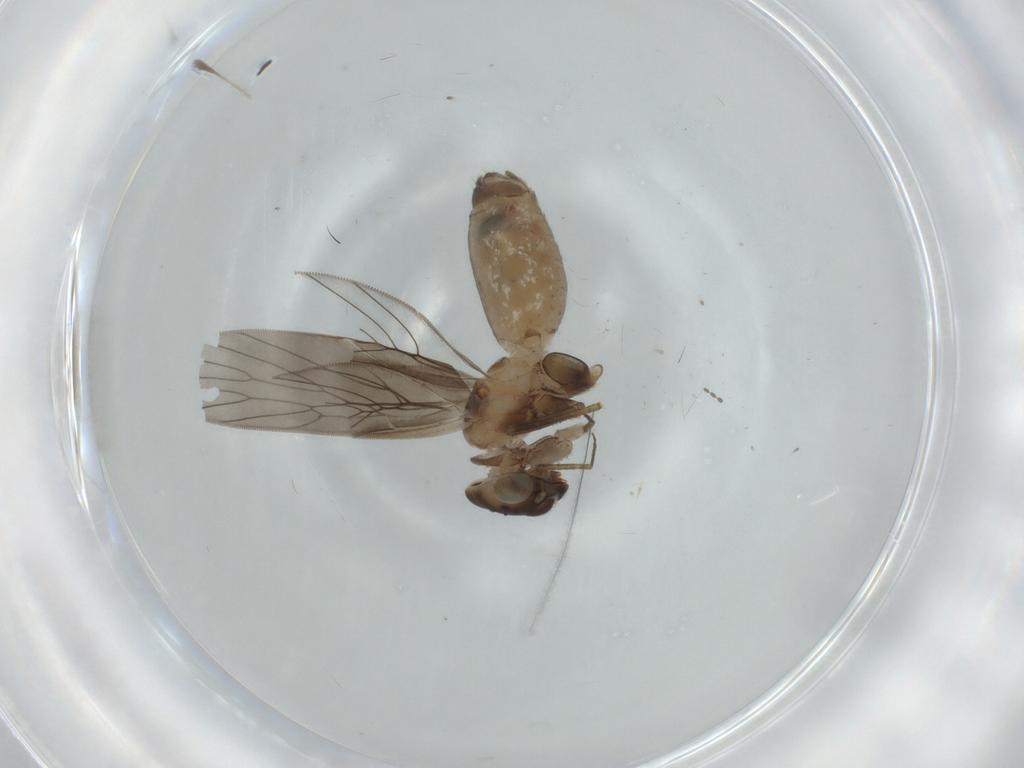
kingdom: Animalia
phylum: Arthropoda
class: Insecta
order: Psocodea
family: Lepidopsocidae
